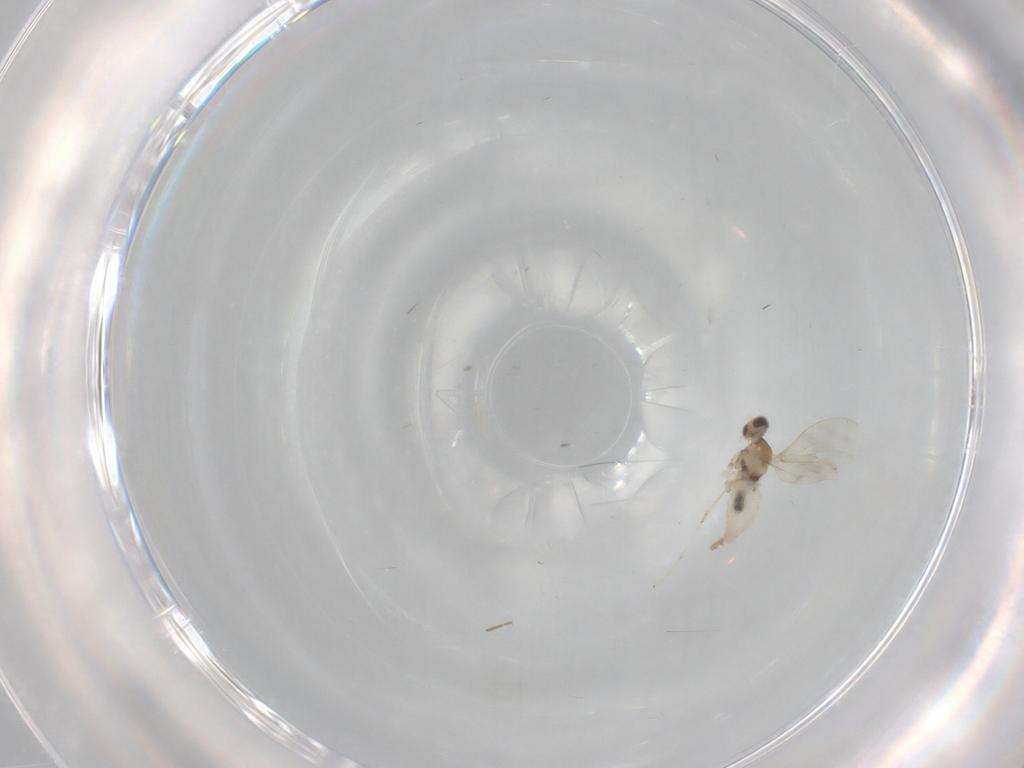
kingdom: Animalia
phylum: Arthropoda
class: Insecta
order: Diptera
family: Cecidomyiidae
